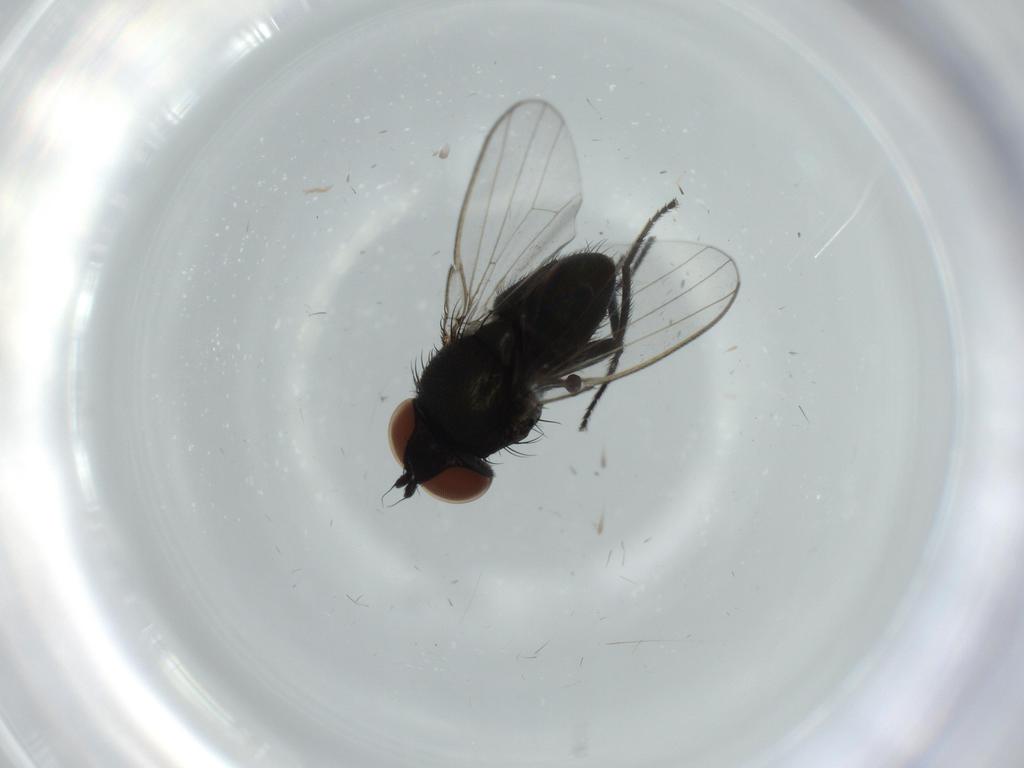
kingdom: Animalia
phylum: Arthropoda
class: Insecta
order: Diptera
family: Milichiidae
